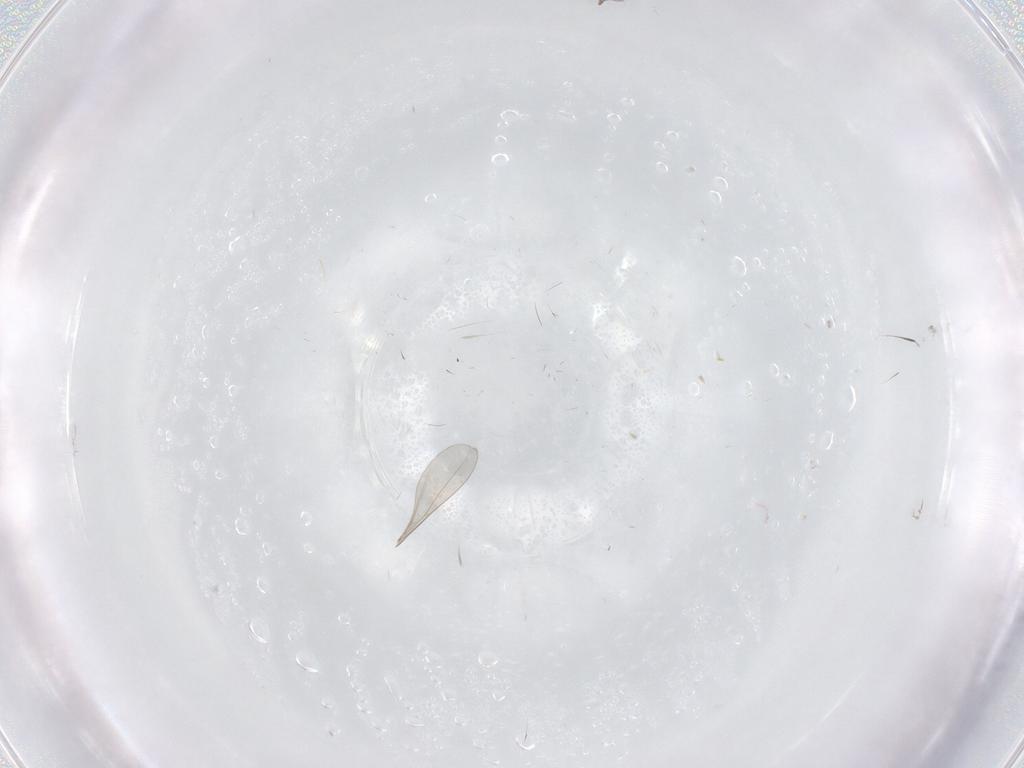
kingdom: Animalia
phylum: Arthropoda
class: Insecta
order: Hymenoptera
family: Mymaridae
